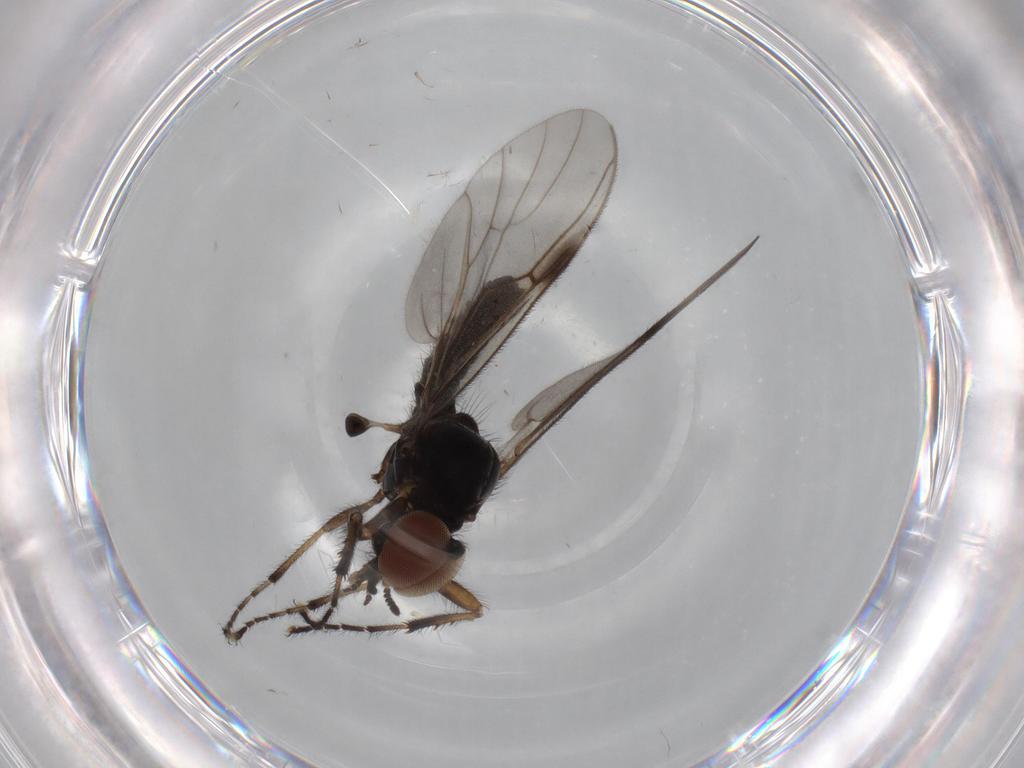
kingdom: Animalia
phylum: Arthropoda
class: Insecta
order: Diptera
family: Bibionidae
